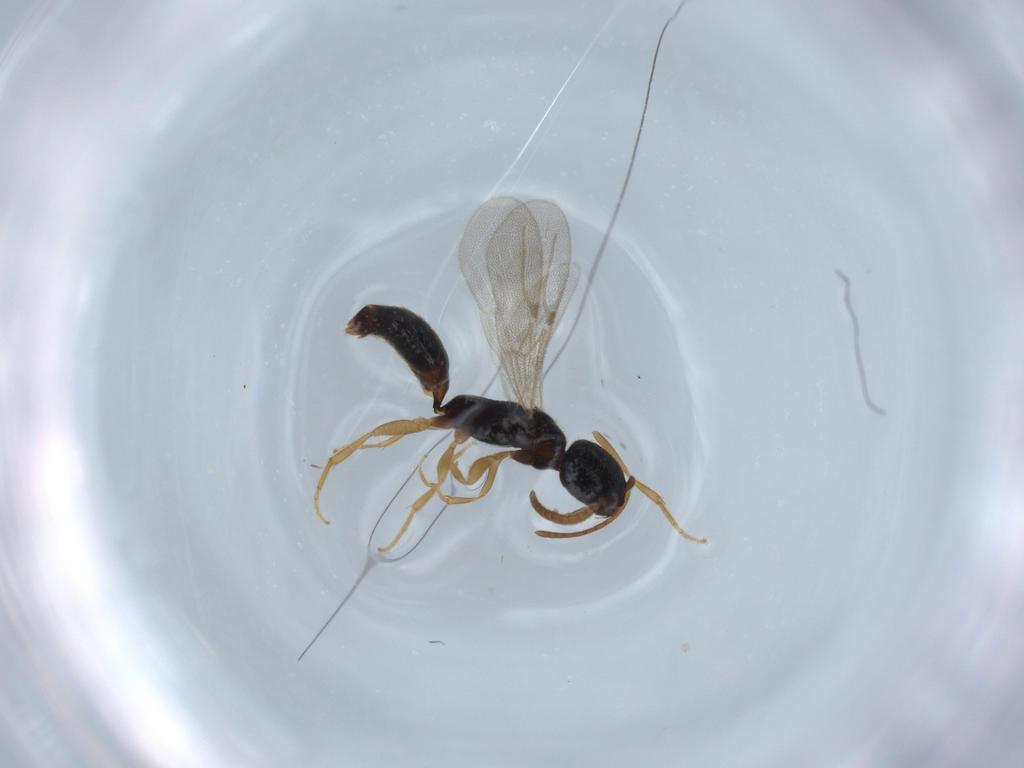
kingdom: Animalia
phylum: Arthropoda
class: Insecta
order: Hymenoptera
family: Bethylidae
